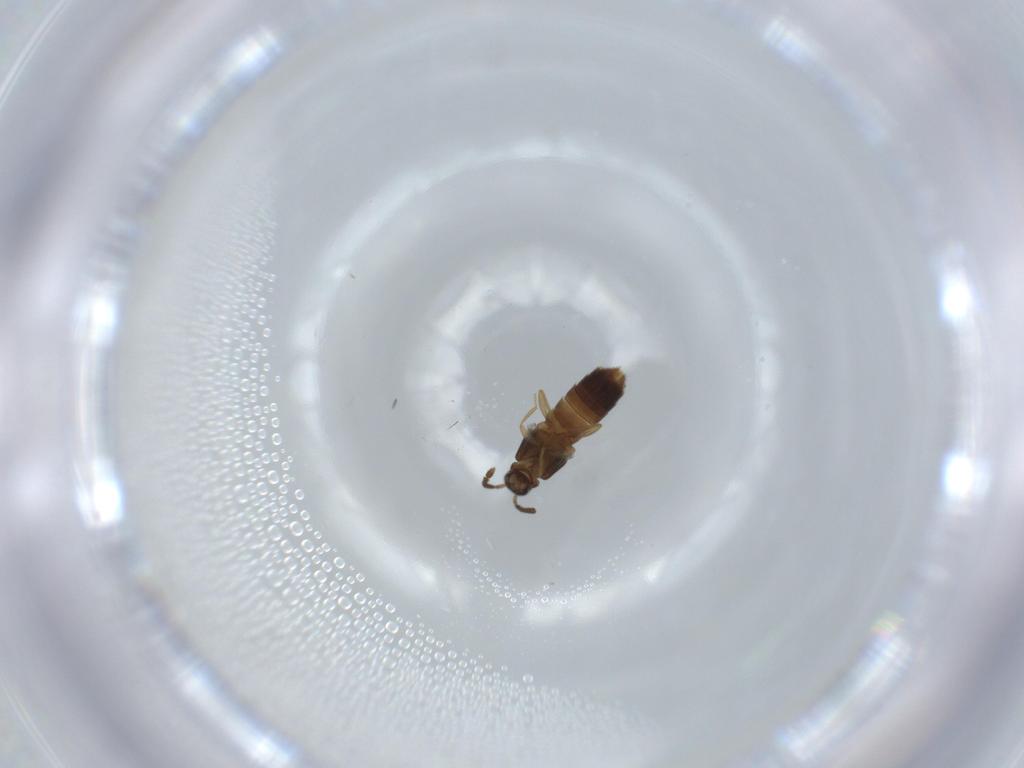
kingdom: Animalia
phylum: Arthropoda
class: Insecta
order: Coleoptera
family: Staphylinidae
